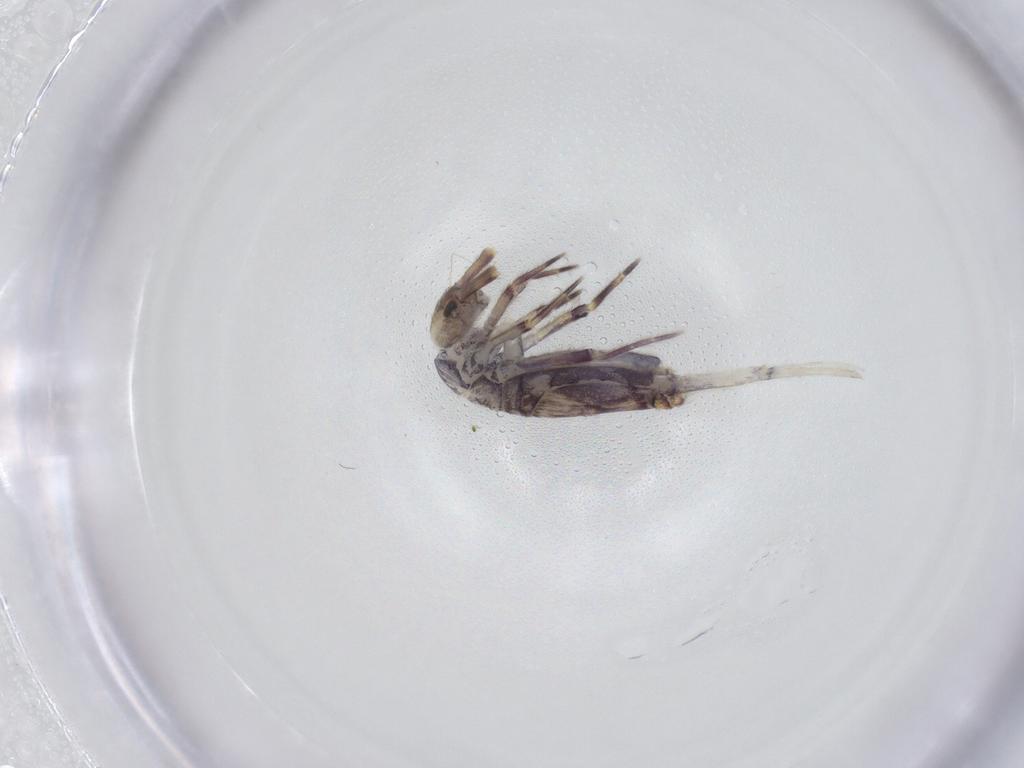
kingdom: Animalia
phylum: Arthropoda
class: Collembola
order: Entomobryomorpha
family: Entomobryidae
